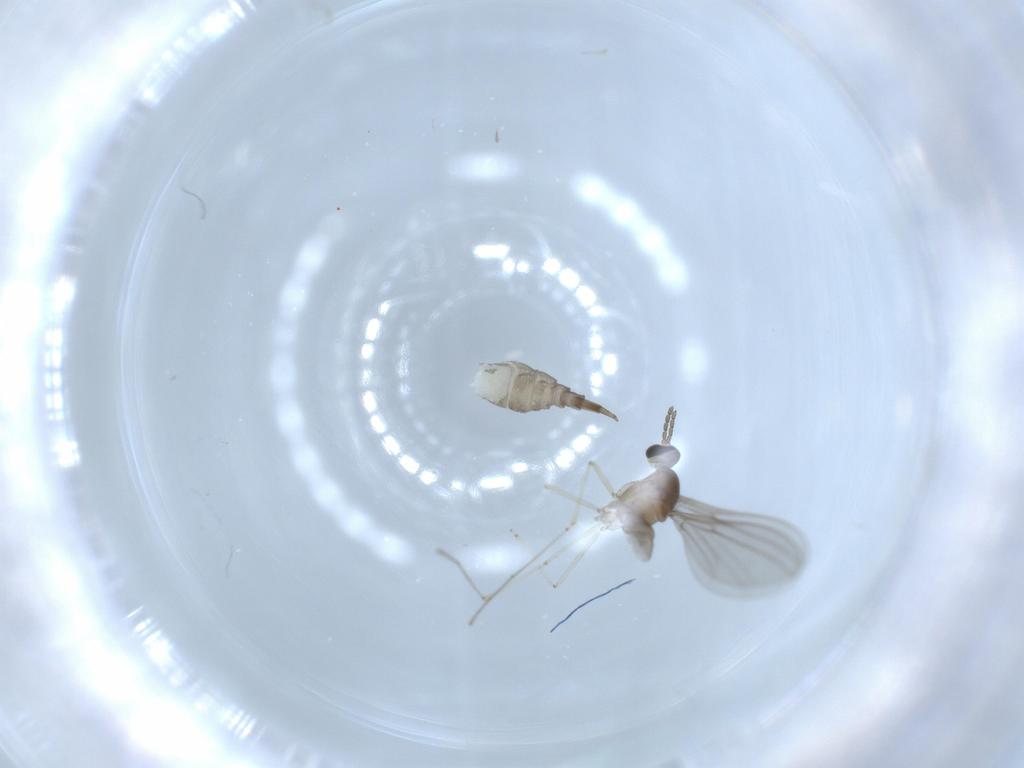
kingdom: Animalia
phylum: Arthropoda
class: Insecta
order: Diptera
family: Cecidomyiidae
